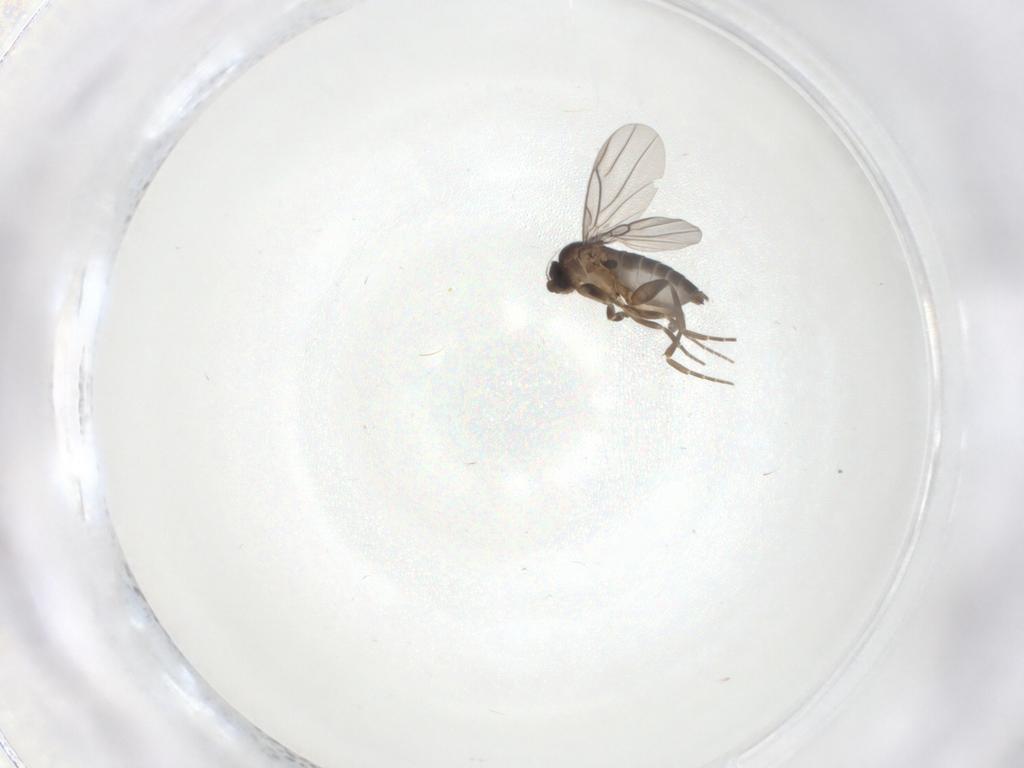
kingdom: Animalia
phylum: Arthropoda
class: Insecta
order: Diptera
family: Phoridae
